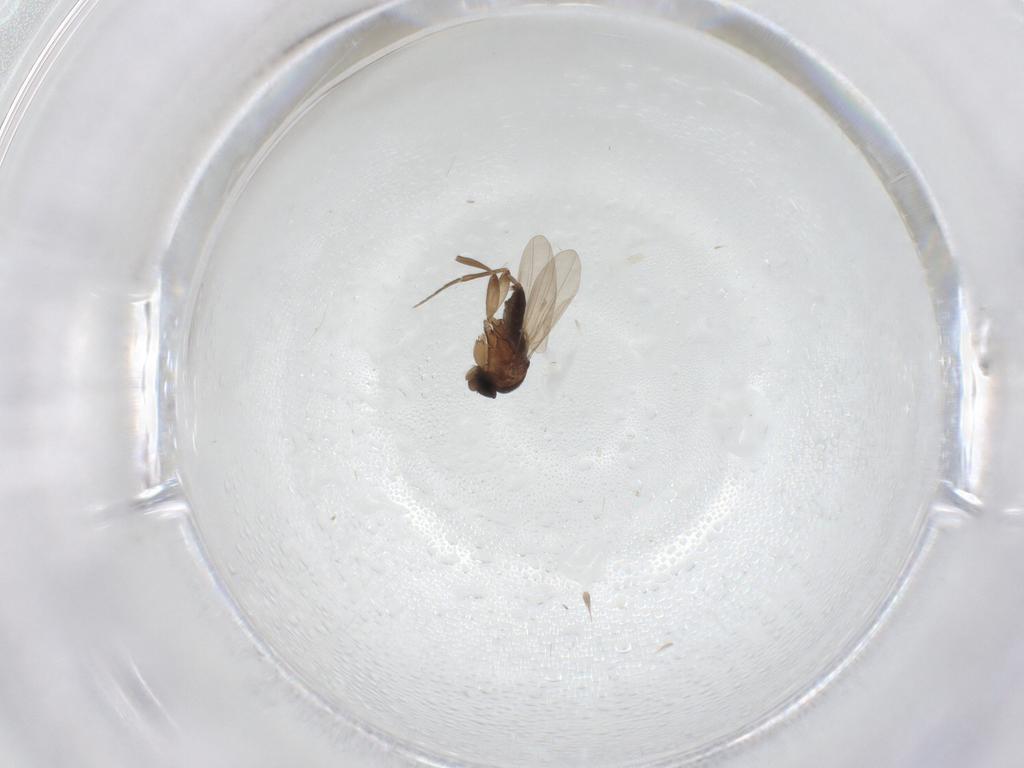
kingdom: Animalia
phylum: Arthropoda
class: Insecta
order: Diptera
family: Phoridae
